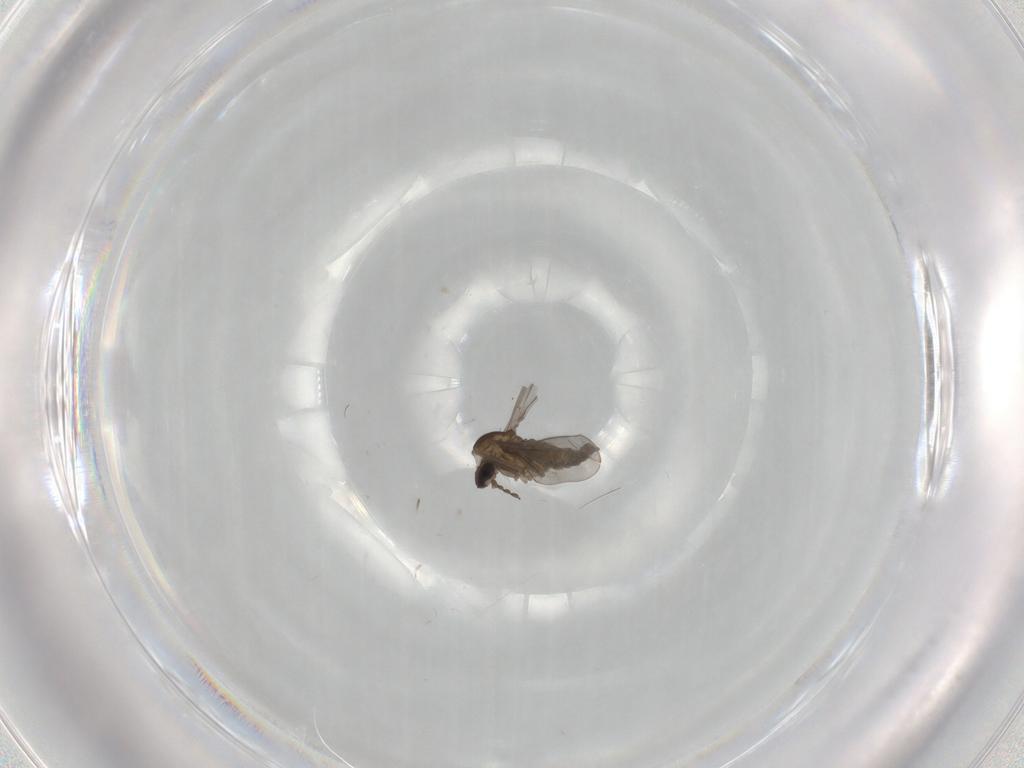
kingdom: Animalia
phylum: Arthropoda
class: Insecta
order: Diptera
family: Cecidomyiidae
